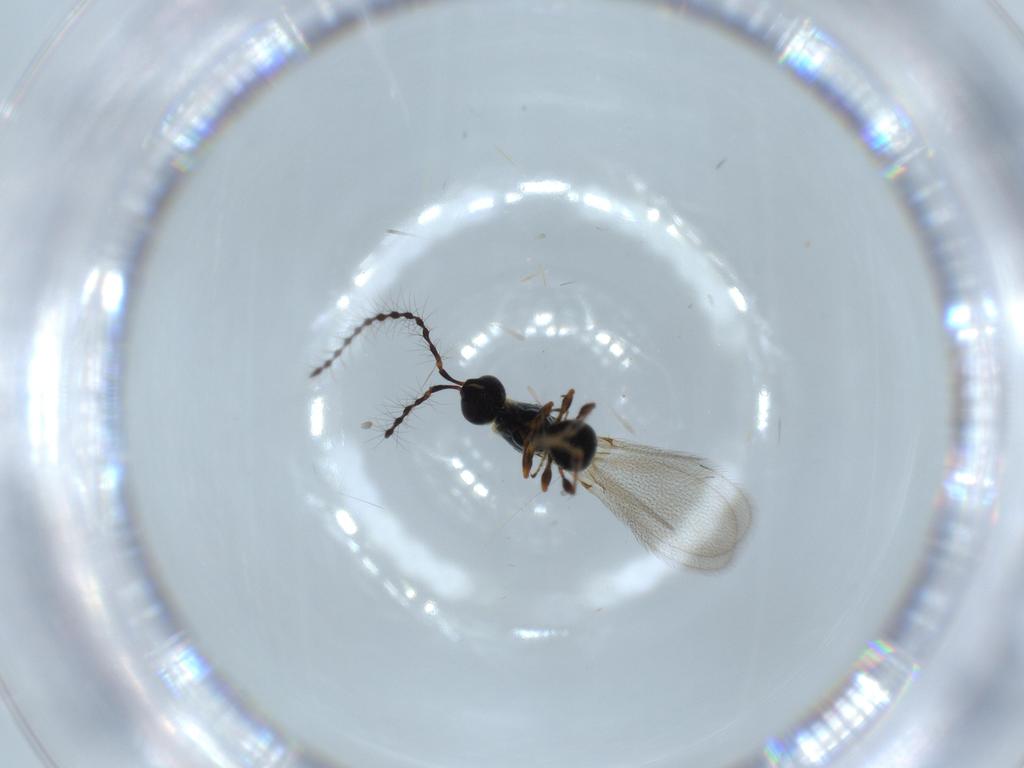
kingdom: Animalia
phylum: Arthropoda
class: Insecta
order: Hymenoptera
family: Diapriidae
